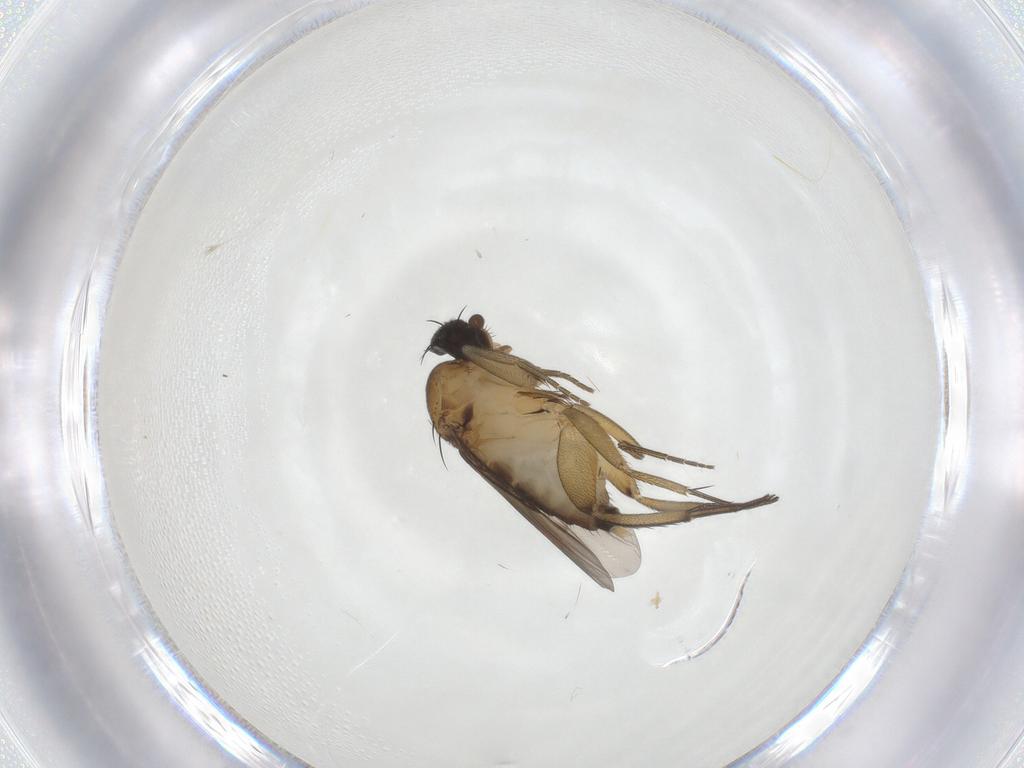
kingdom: Animalia
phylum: Arthropoda
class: Insecta
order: Diptera
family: Phoridae
